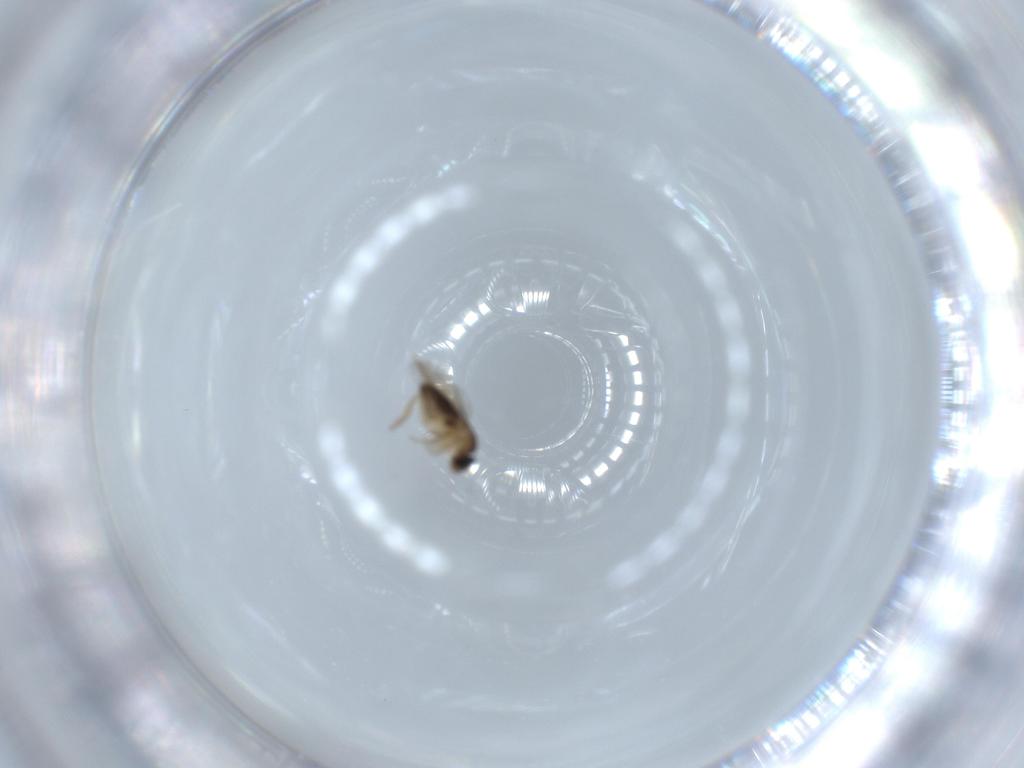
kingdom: Animalia
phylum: Arthropoda
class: Insecta
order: Diptera
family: Phoridae
